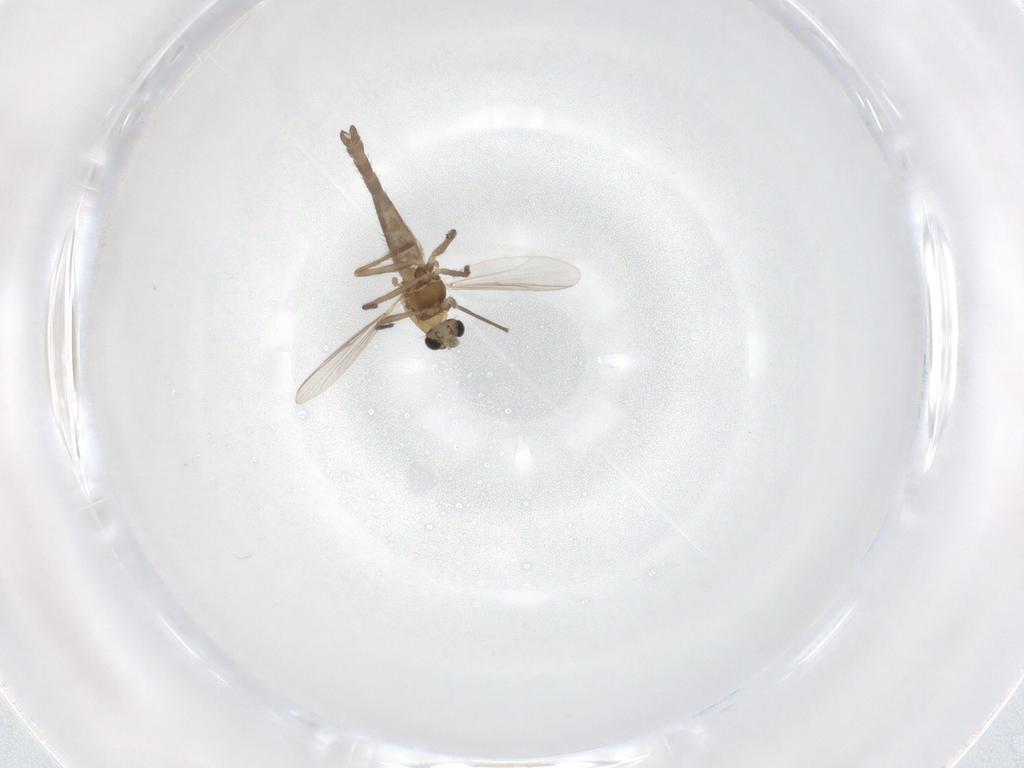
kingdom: Animalia
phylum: Arthropoda
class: Insecta
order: Diptera
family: Chironomidae
